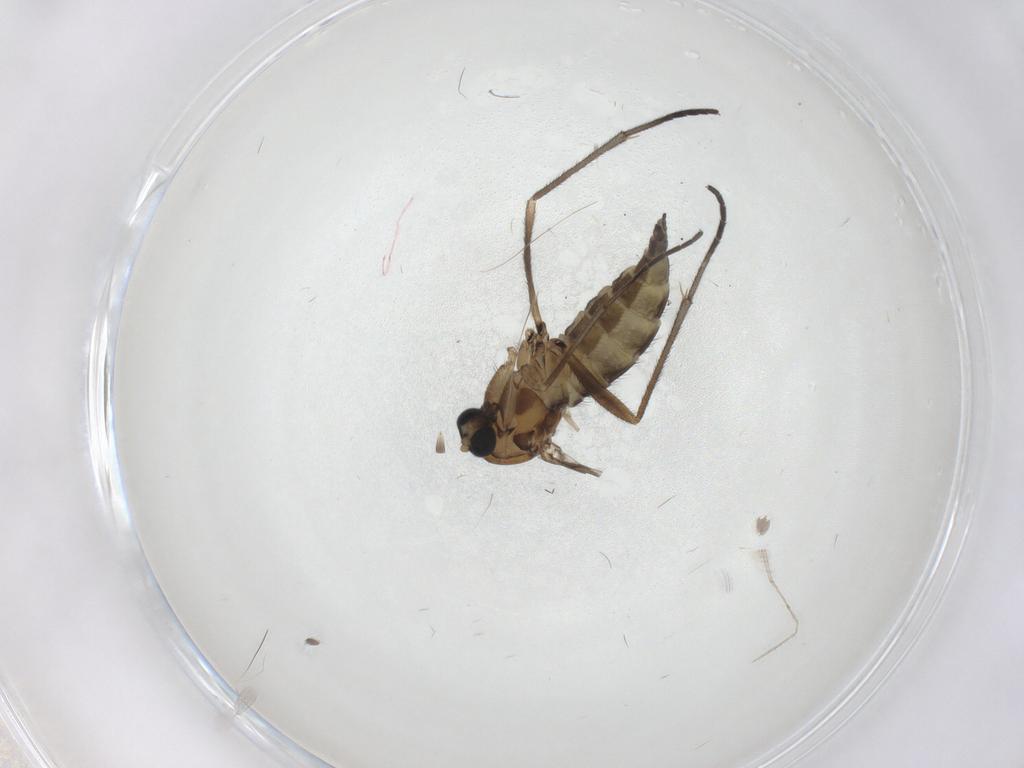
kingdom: Animalia
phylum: Arthropoda
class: Insecta
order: Diptera
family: Sciaridae
